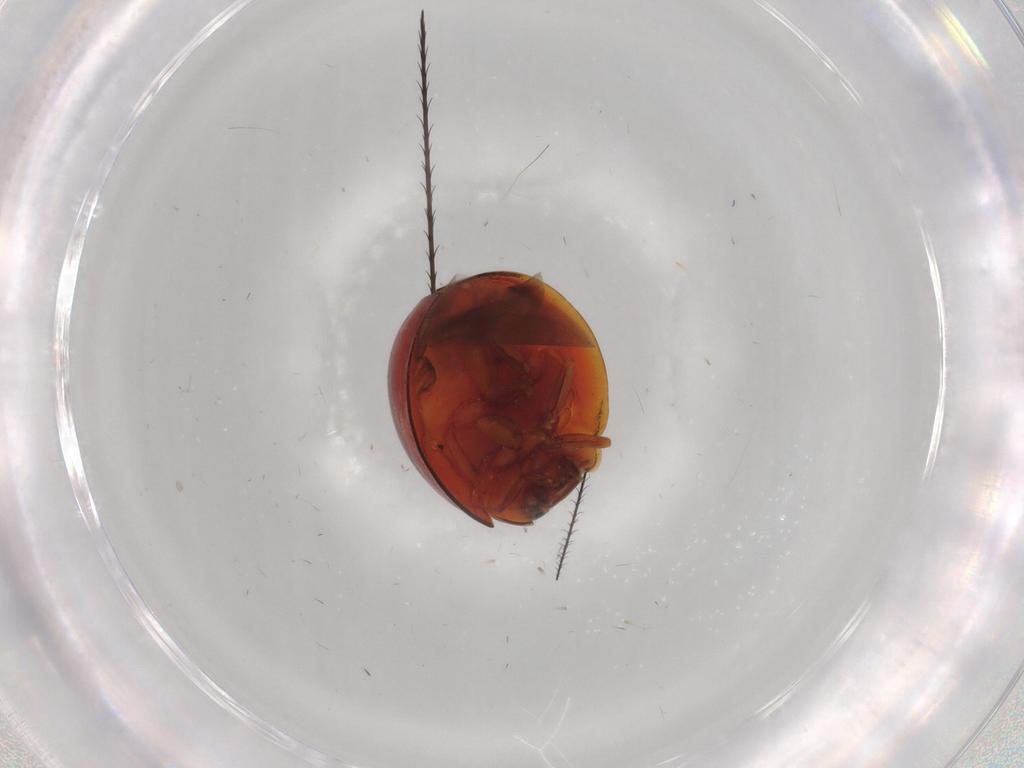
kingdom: Animalia
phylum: Arthropoda
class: Insecta
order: Coleoptera
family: Coccinellidae
